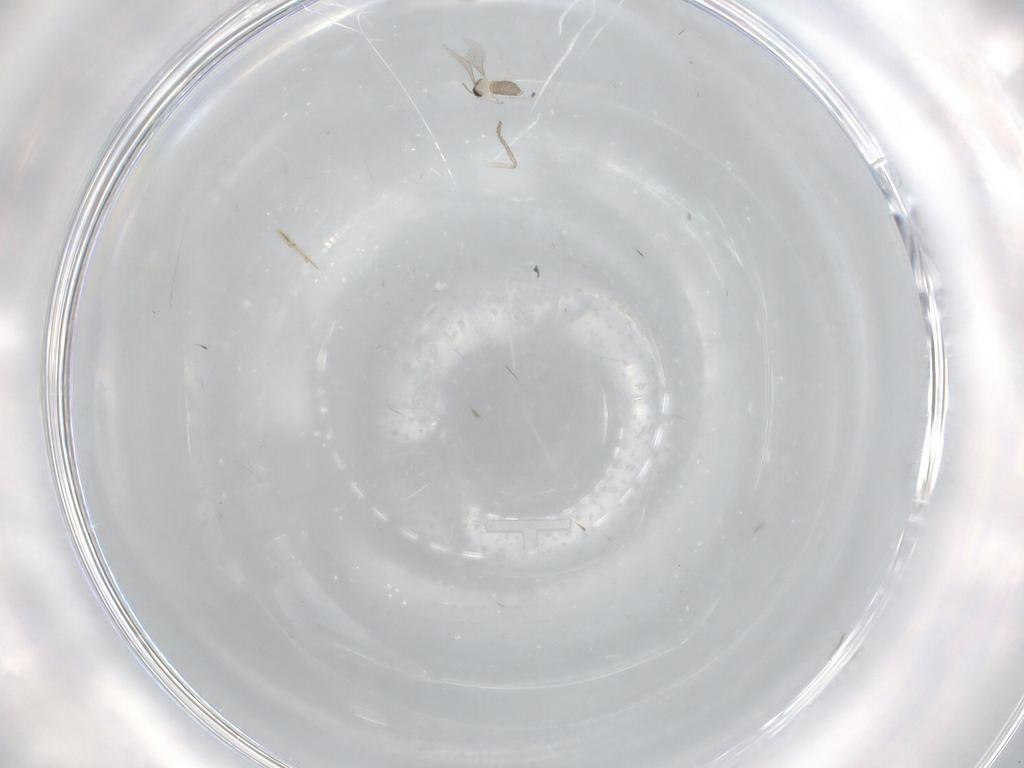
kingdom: Animalia
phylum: Arthropoda
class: Insecta
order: Diptera
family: Cecidomyiidae
